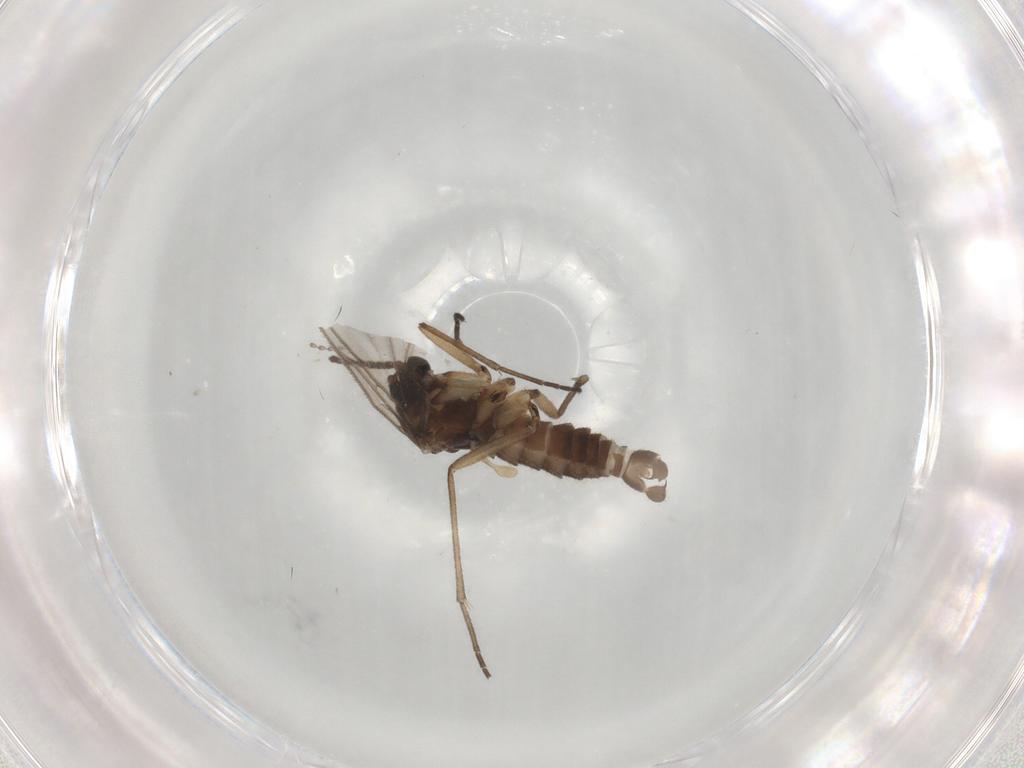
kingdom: Animalia
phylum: Arthropoda
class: Insecta
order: Diptera
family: Sciaridae
